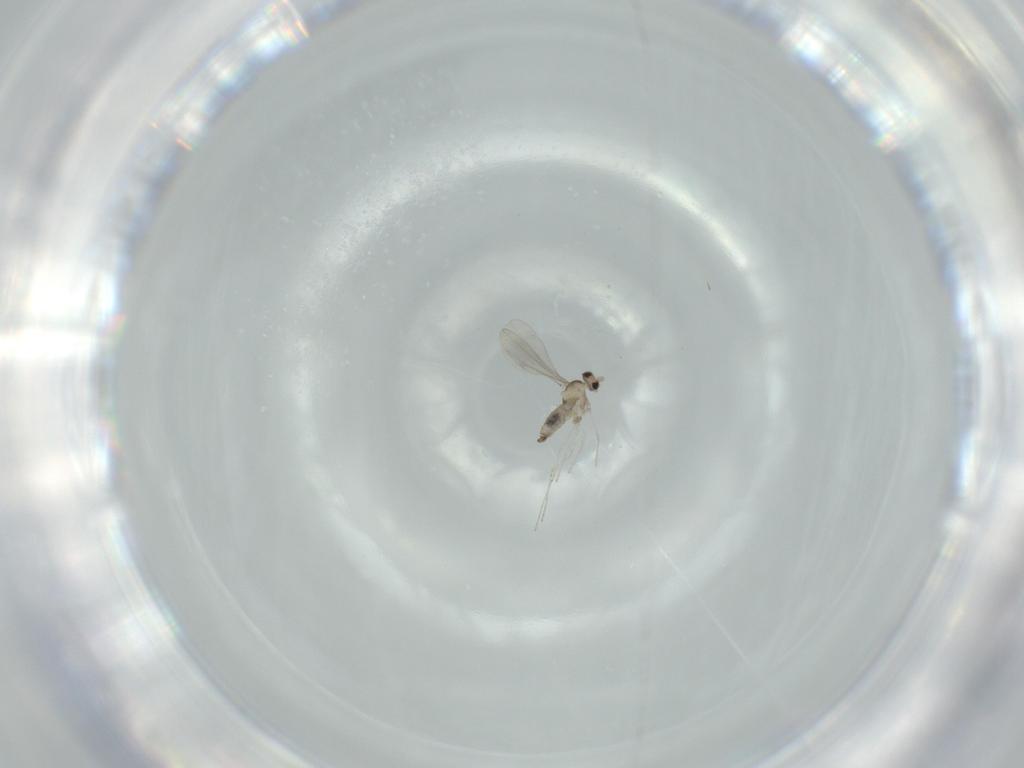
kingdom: Animalia
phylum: Arthropoda
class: Insecta
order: Diptera
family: Cecidomyiidae
